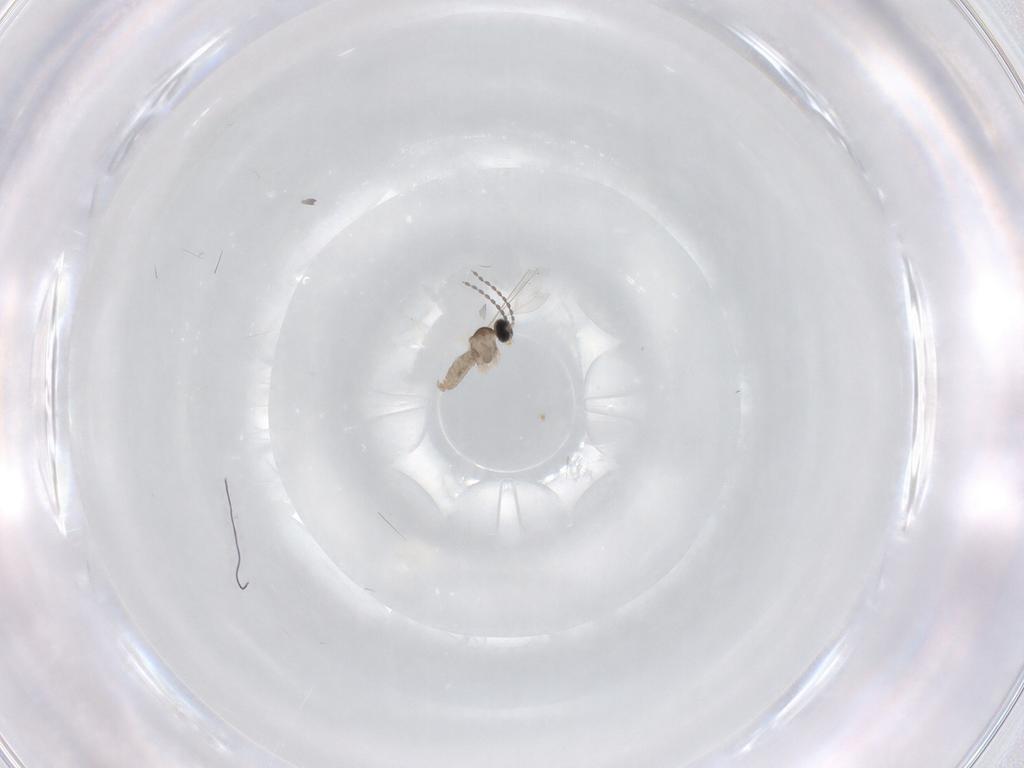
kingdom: Animalia
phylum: Arthropoda
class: Insecta
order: Diptera
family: Cecidomyiidae
